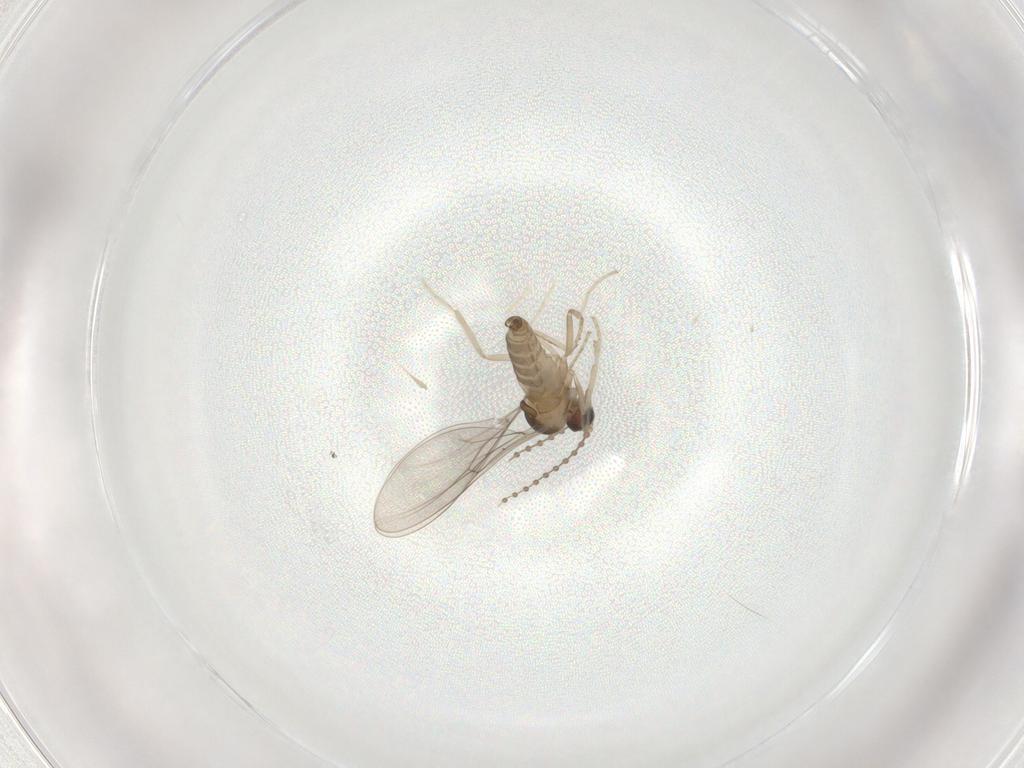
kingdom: Animalia
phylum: Arthropoda
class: Insecta
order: Diptera
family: Cecidomyiidae
